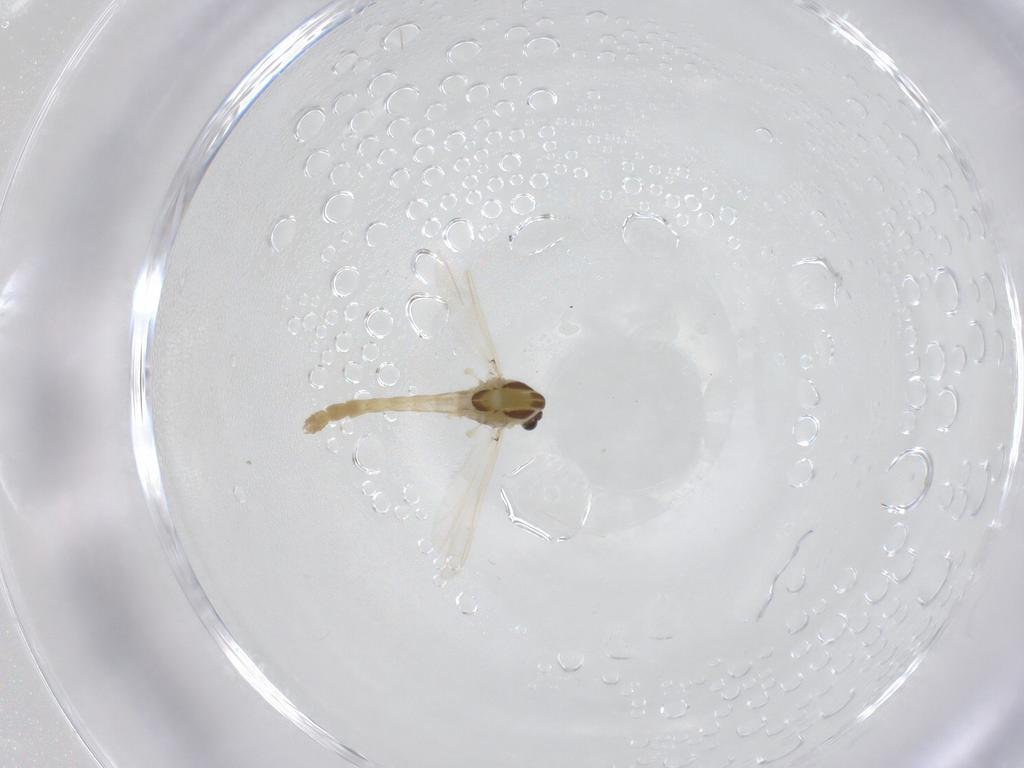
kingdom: Animalia
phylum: Arthropoda
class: Insecta
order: Diptera
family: Chironomidae
